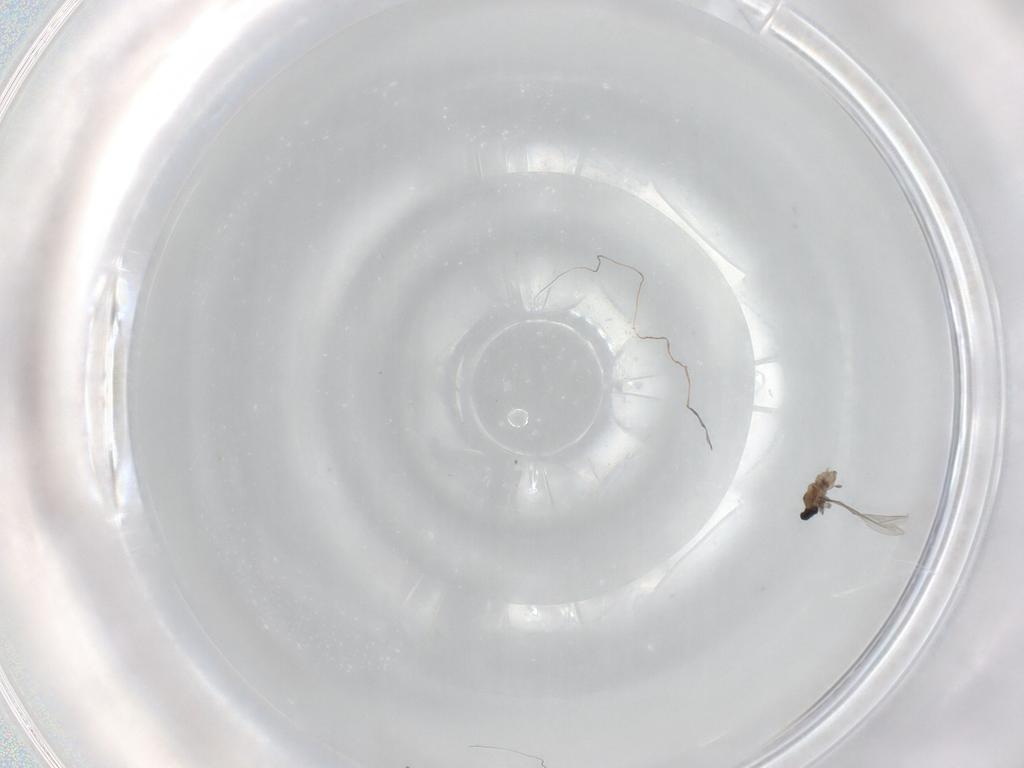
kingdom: Animalia
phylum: Arthropoda
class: Insecta
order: Diptera
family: Cecidomyiidae
